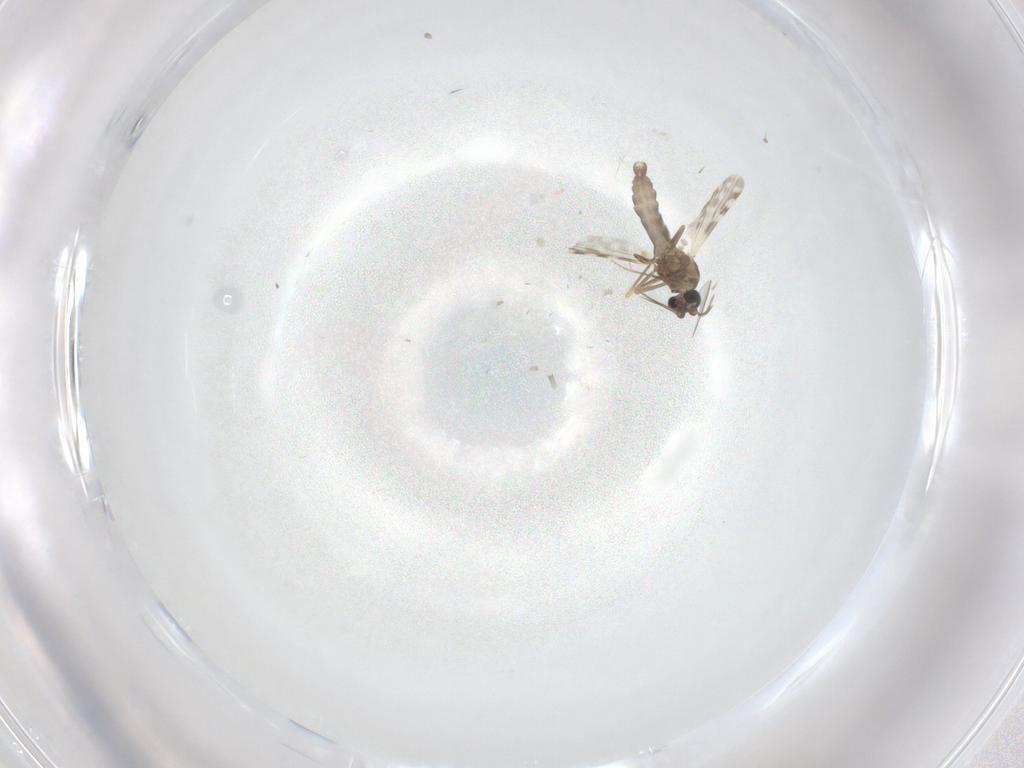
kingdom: Animalia
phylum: Arthropoda
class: Insecta
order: Diptera
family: Ceratopogonidae
